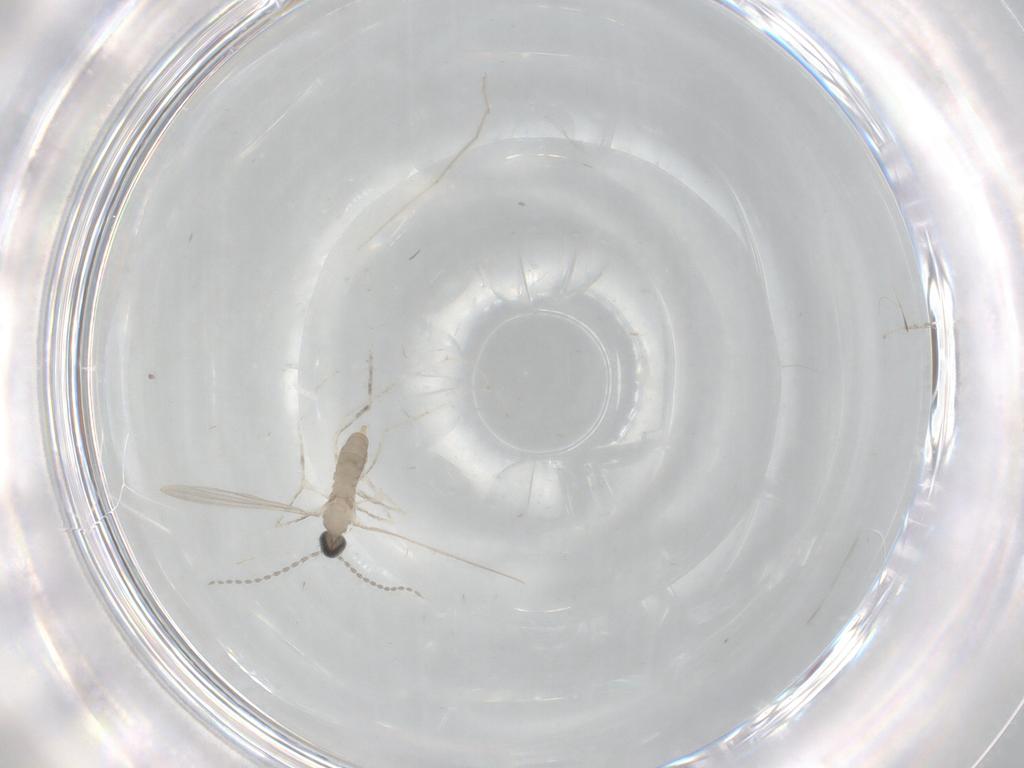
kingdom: Animalia
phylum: Arthropoda
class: Insecta
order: Diptera
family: Cecidomyiidae
